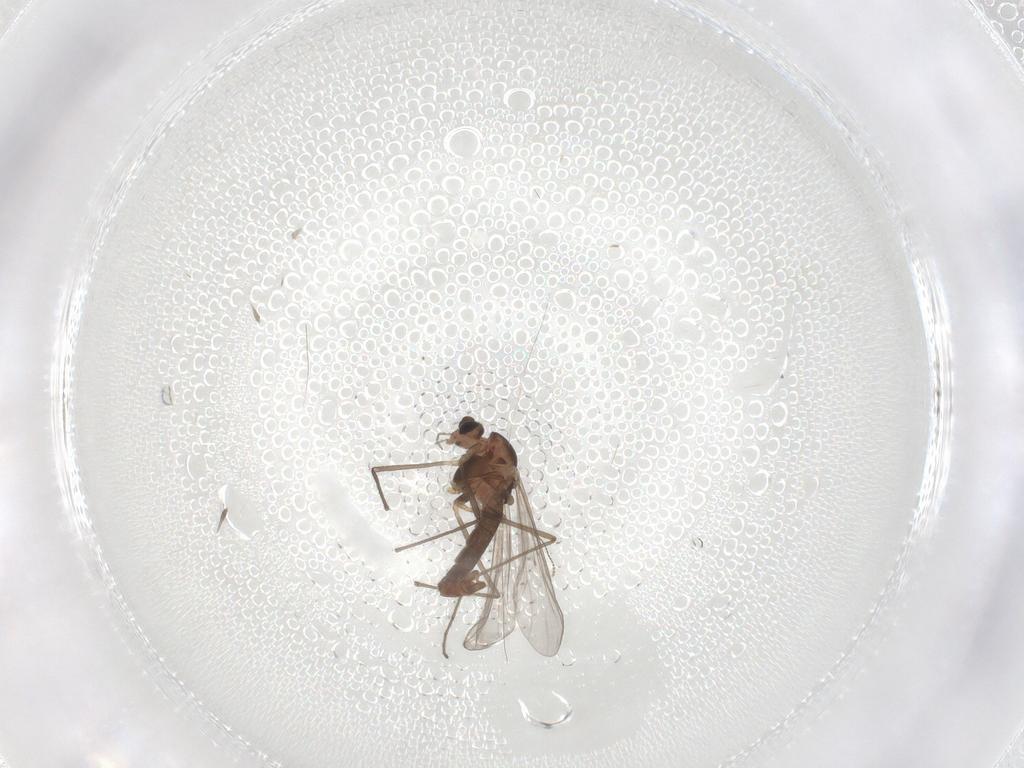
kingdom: Animalia
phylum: Arthropoda
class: Insecta
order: Diptera
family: Chironomidae
